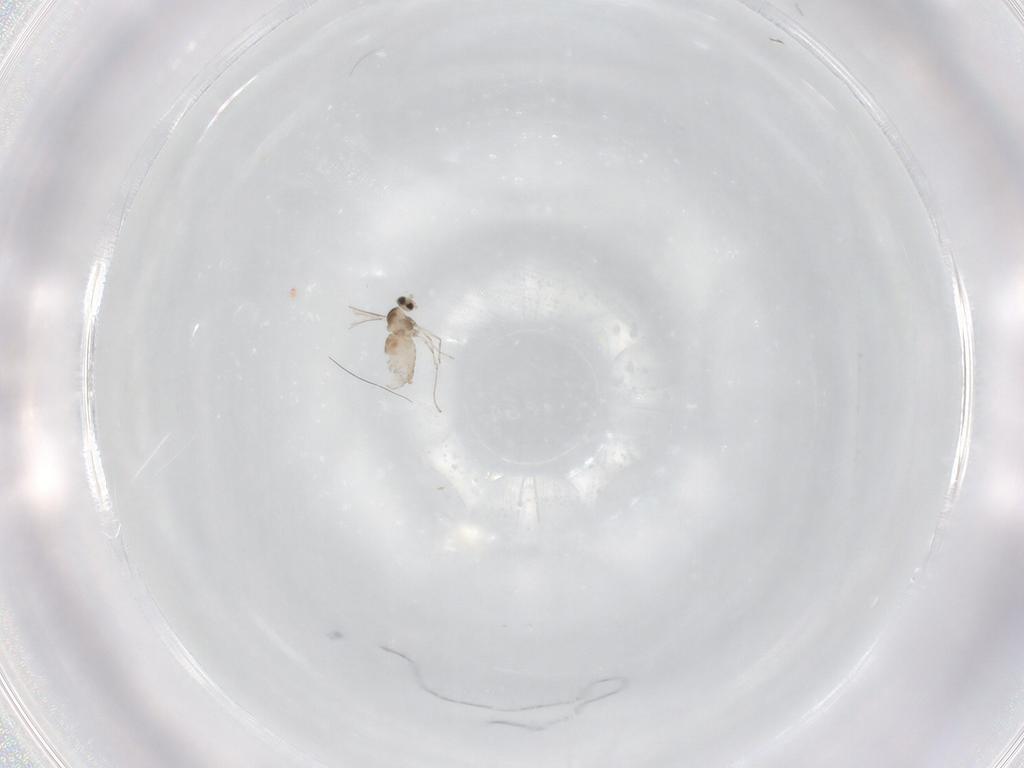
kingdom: Animalia
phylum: Arthropoda
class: Insecta
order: Diptera
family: Cecidomyiidae
